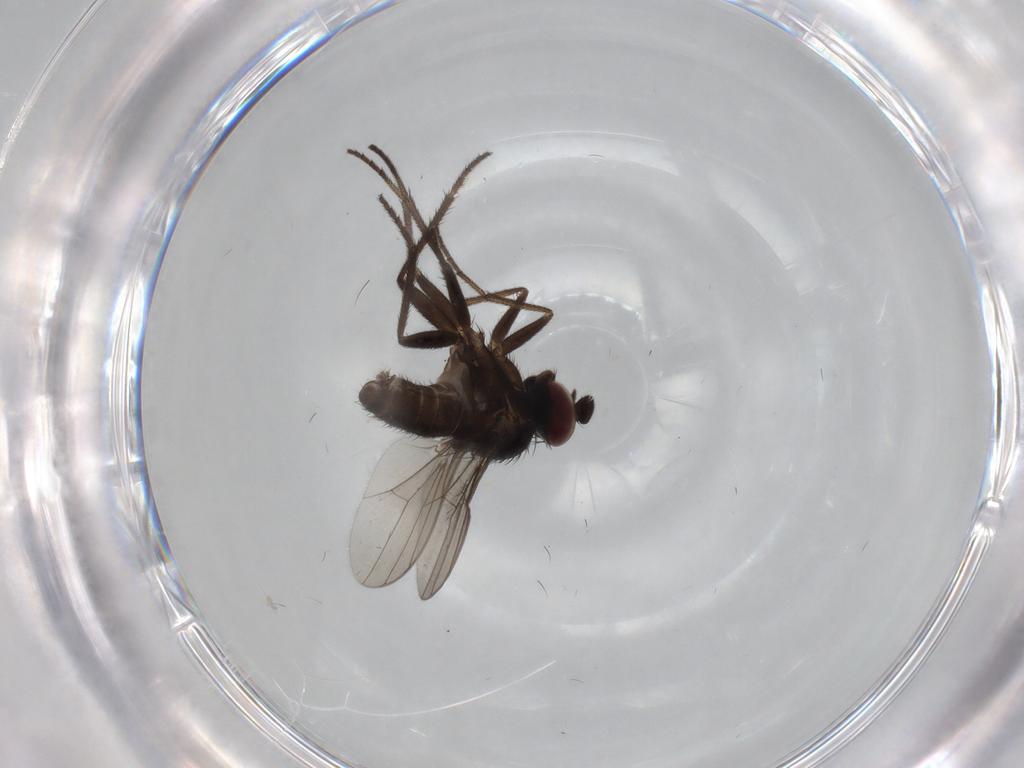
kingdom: Animalia
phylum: Arthropoda
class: Insecta
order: Diptera
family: Dolichopodidae
